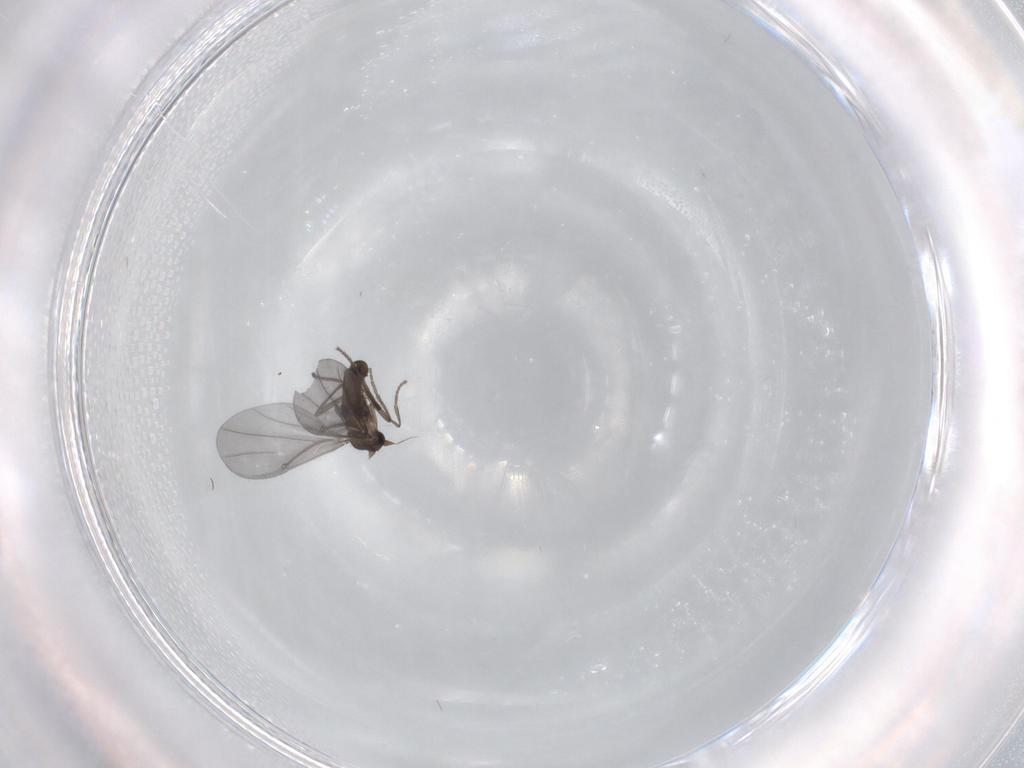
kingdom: Animalia
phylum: Arthropoda
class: Insecta
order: Diptera
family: Phoridae
